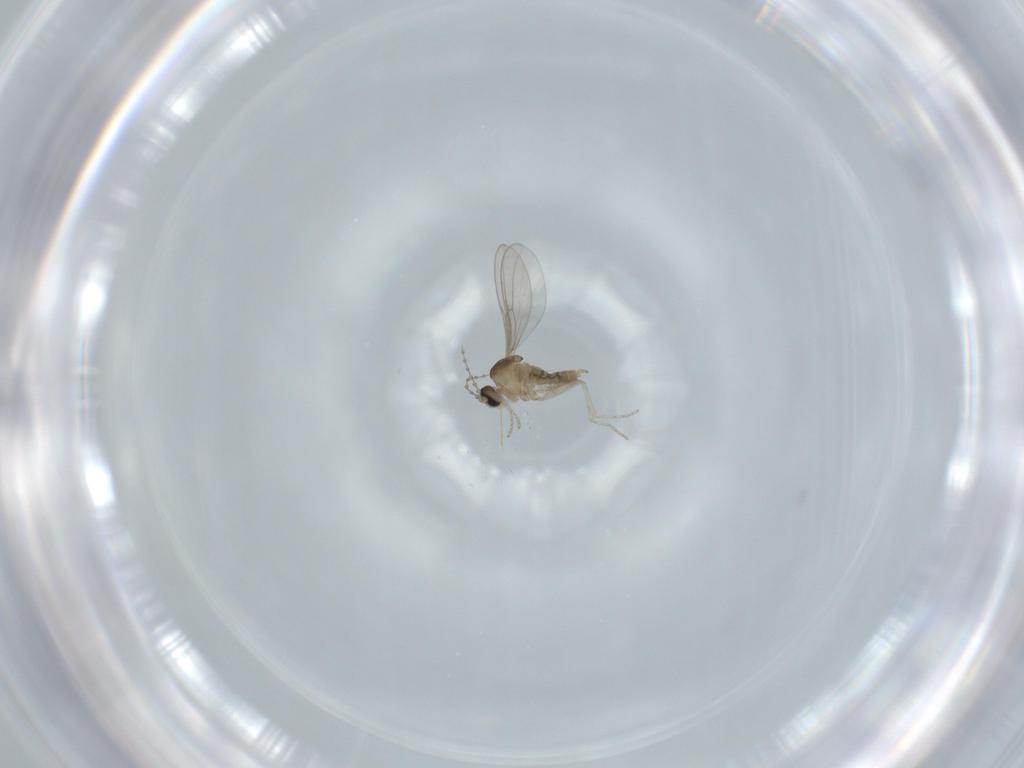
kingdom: Animalia
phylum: Arthropoda
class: Insecta
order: Diptera
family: Cecidomyiidae
